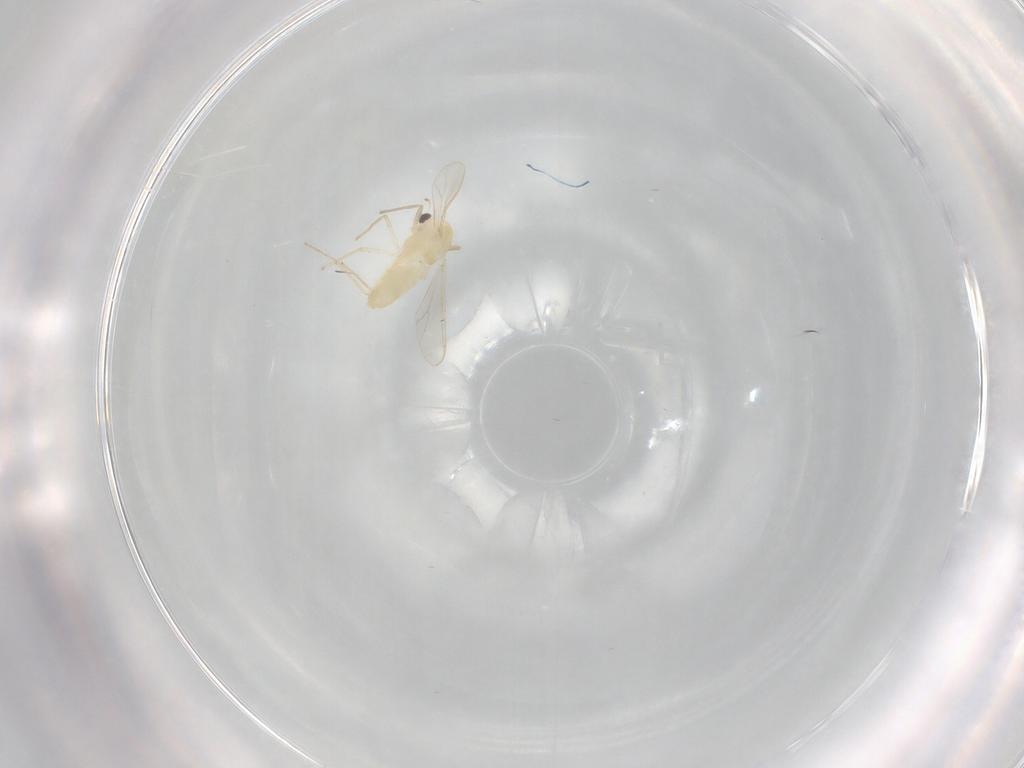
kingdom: Animalia
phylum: Arthropoda
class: Insecta
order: Diptera
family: Chironomidae
